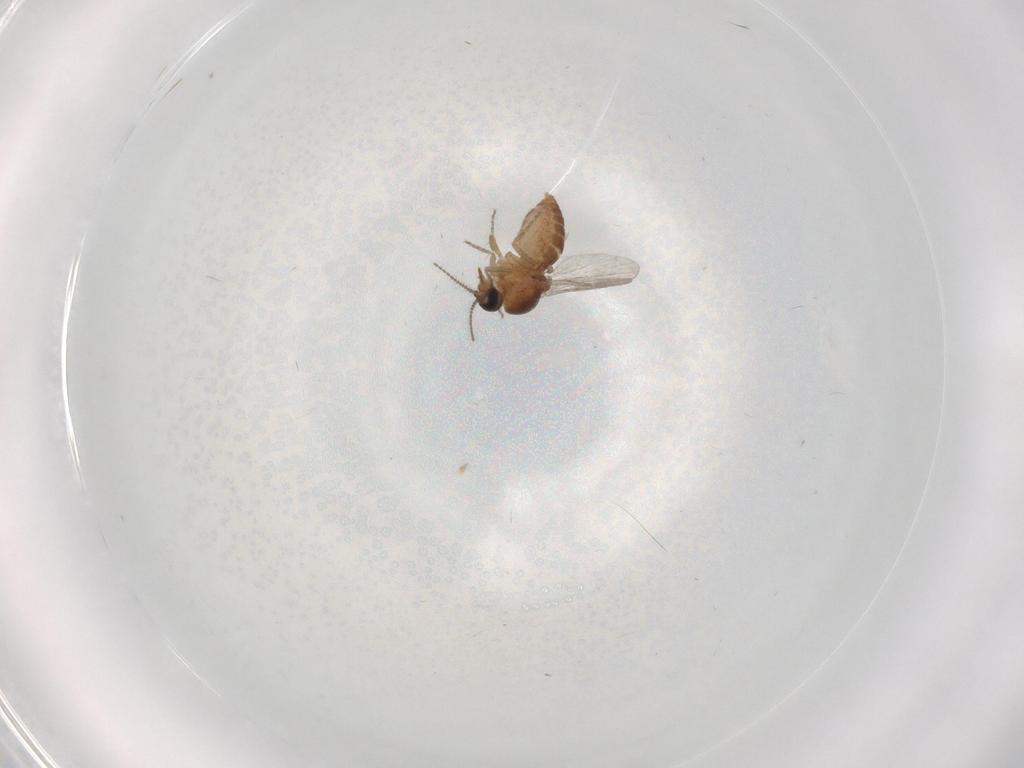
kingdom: Animalia
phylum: Arthropoda
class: Insecta
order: Diptera
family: Ceratopogonidae
